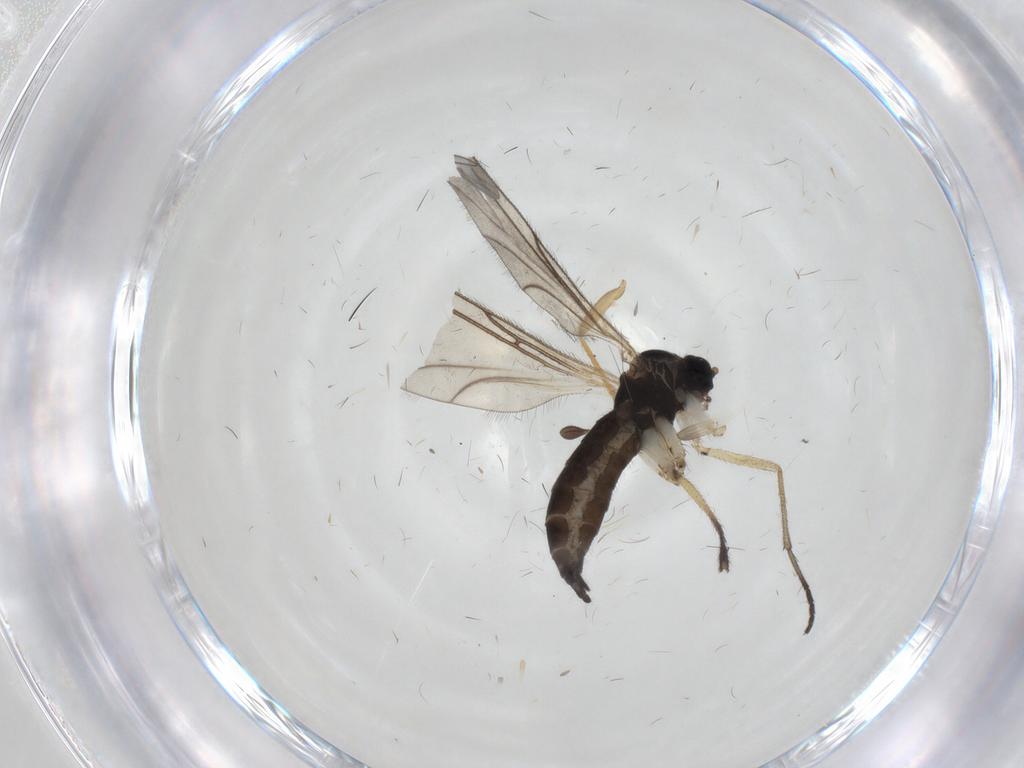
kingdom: Animalia
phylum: Arthropoda
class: Insecta
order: Diptera
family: Sciaridae
